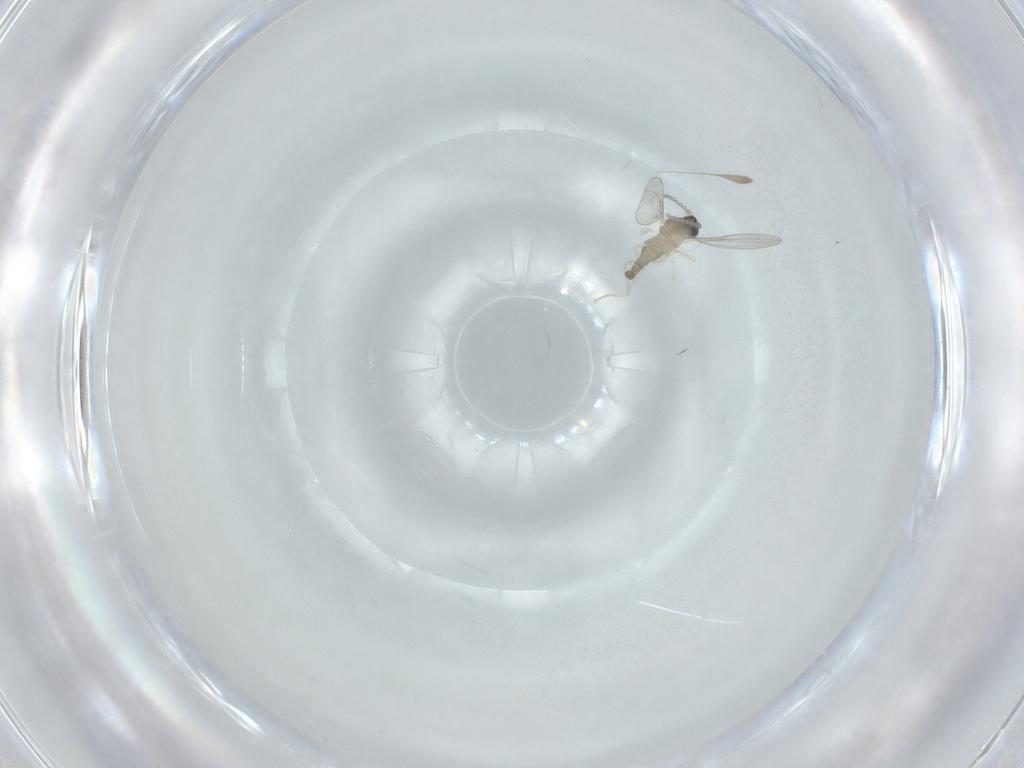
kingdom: Animalia
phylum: Arthropoda
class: Insecta
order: Diptera
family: Cecidomyiidae
